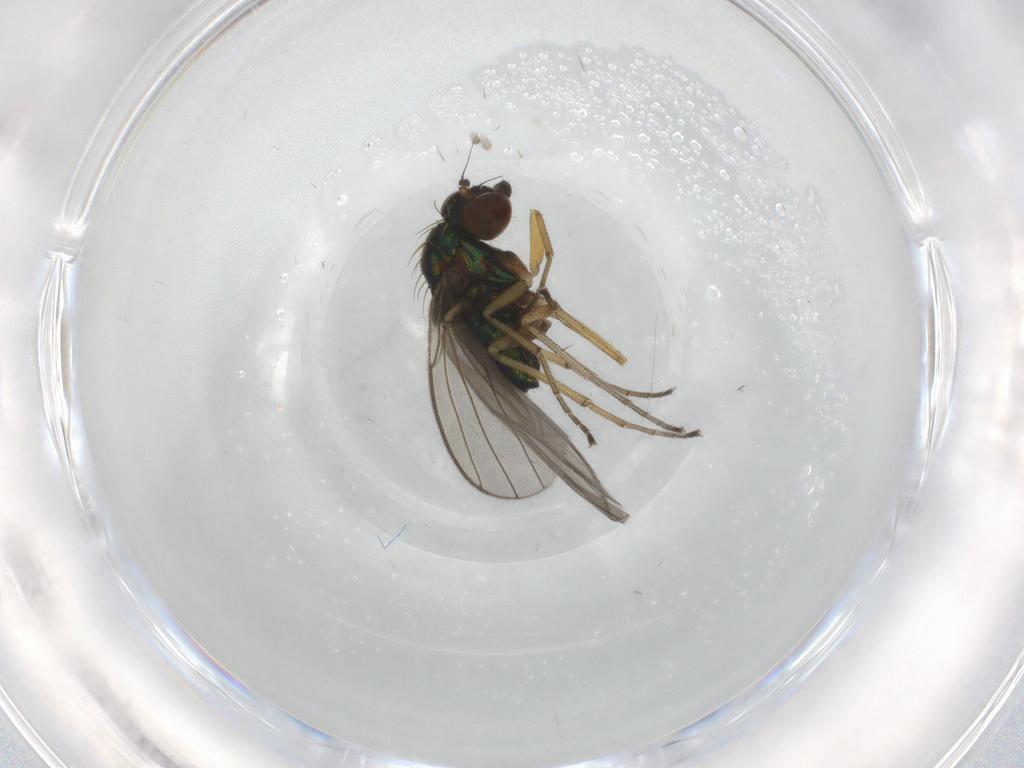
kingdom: Animalia
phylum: Arthropoda
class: Insecta
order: Diptera
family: Dolichopodidae
